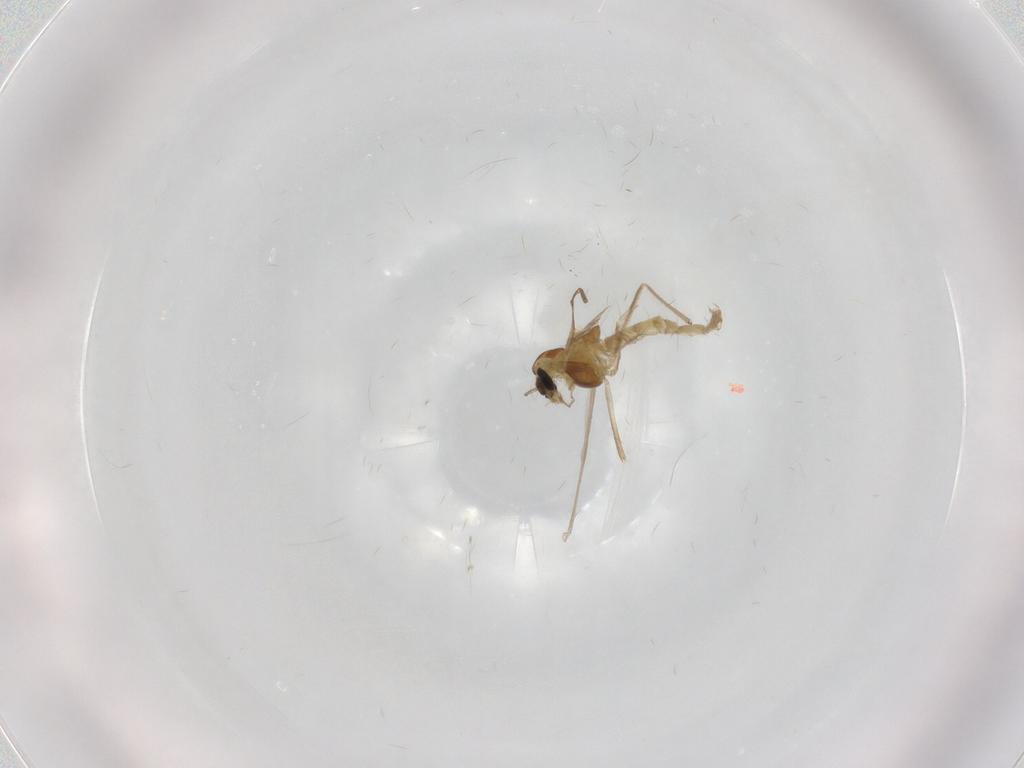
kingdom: Animalia
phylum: Arthropoda
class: Insecta
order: Diptera
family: Chironomidae
